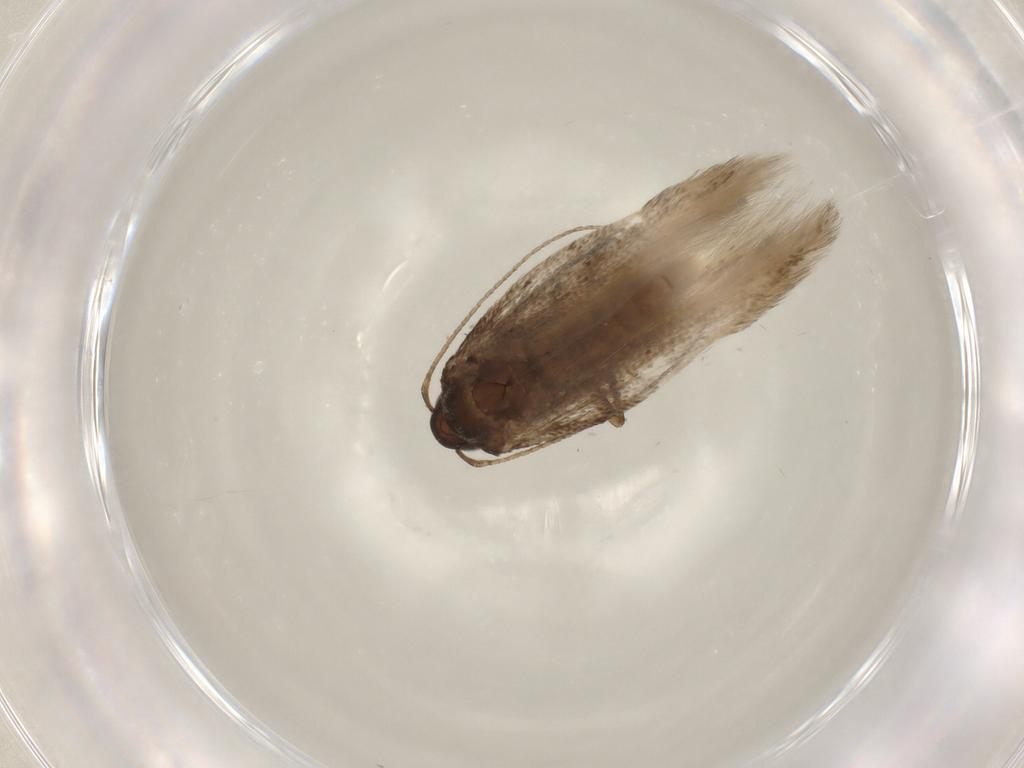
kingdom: Animalia
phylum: Arthropoda
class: Insecta
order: Lepidoptera
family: Gelechiidae
